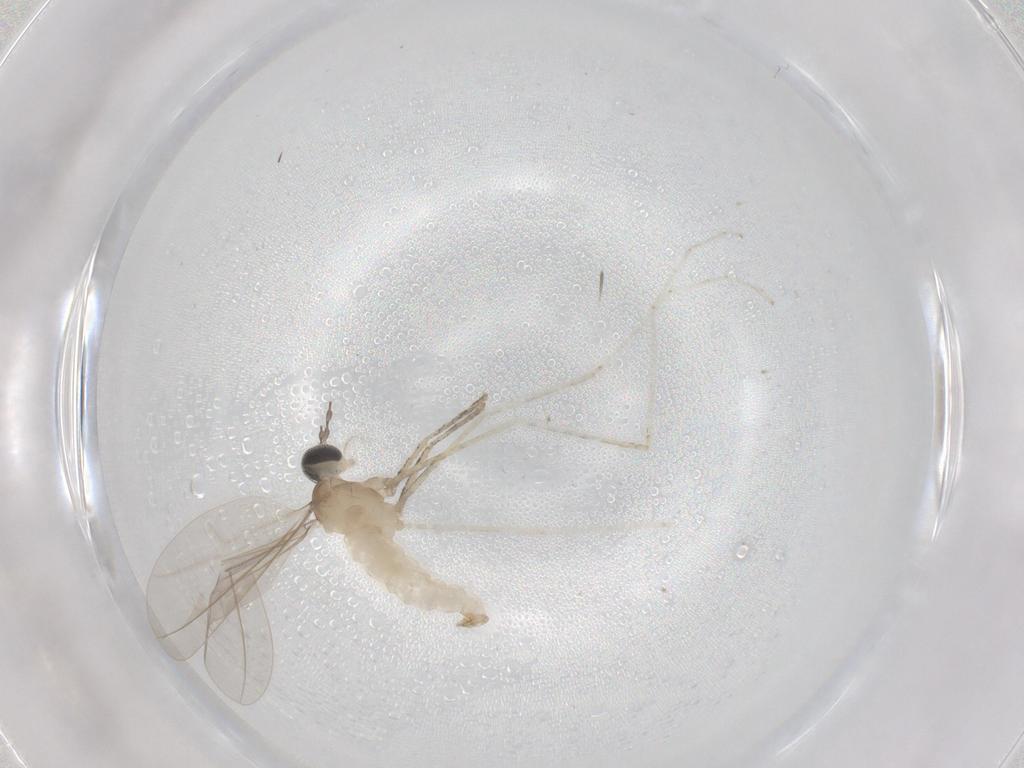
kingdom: Animalia
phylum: Arthropoda
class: Insecta
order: Diptera
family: Cecidomyiidae
